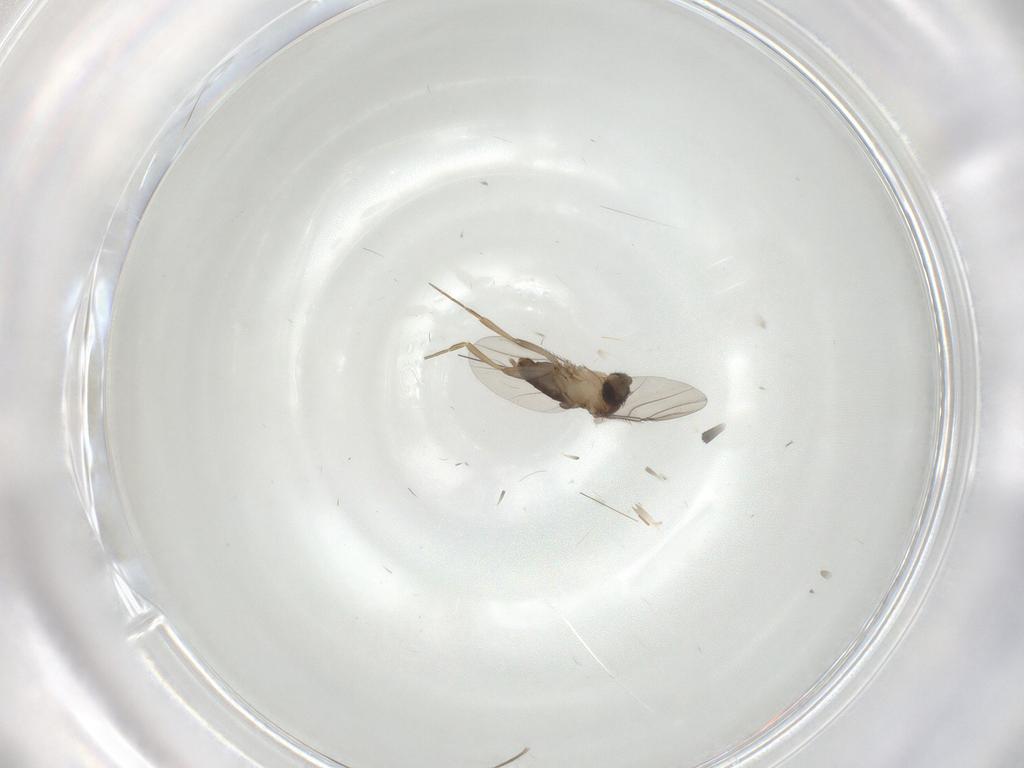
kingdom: Animalia
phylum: Arthropoda
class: Insecta
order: Diptera
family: Phoridae
